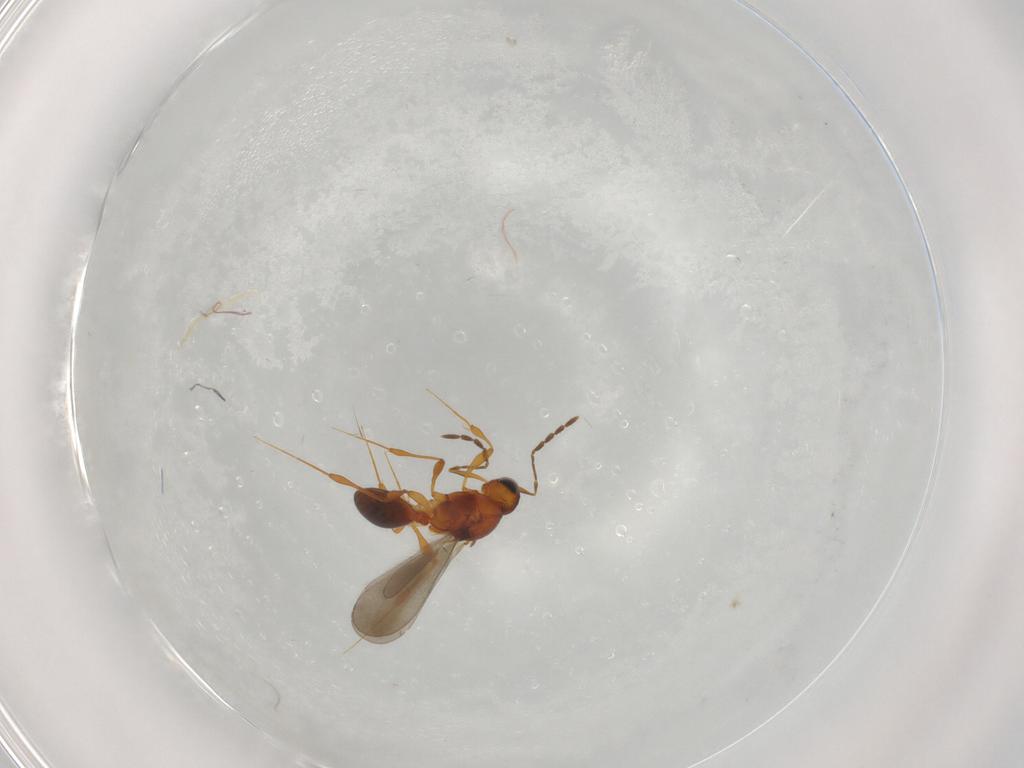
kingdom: Animalia
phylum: Arthropoda
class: Insecta
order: Hymenoptera
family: Platygastridae
